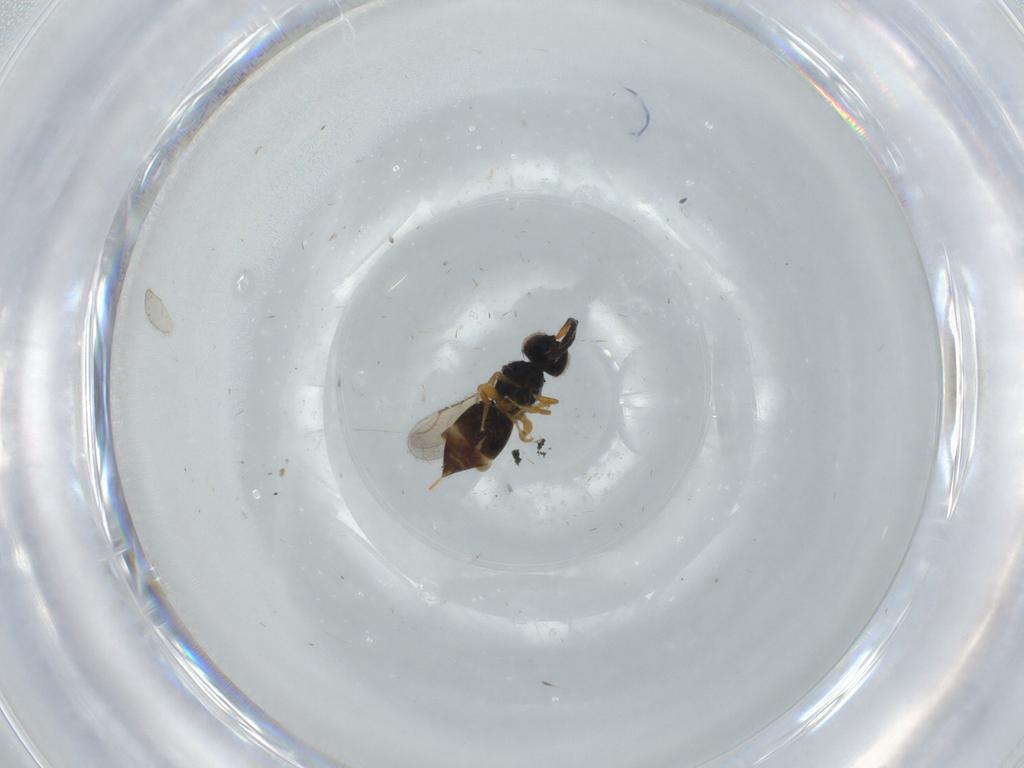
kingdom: Animalia
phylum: Arthropoda
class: Insecta
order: Hymenoptera
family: Ceraphronidae
